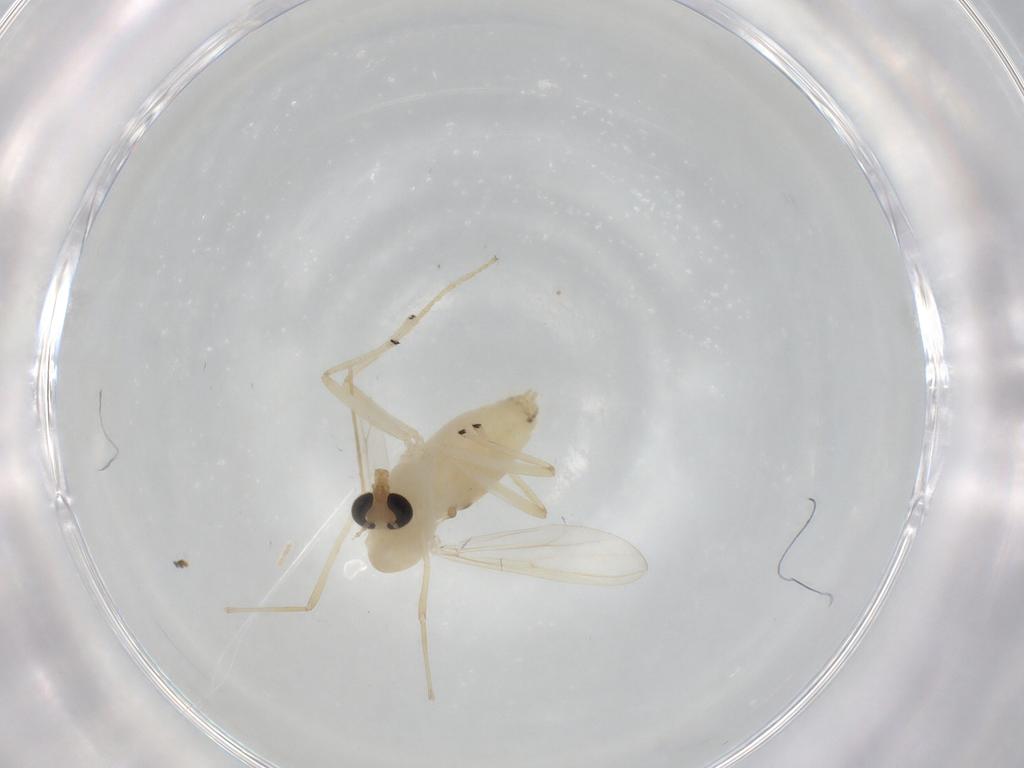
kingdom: Animalia
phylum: Arthropoda
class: Insecta
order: Diptera
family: Chironomidae
